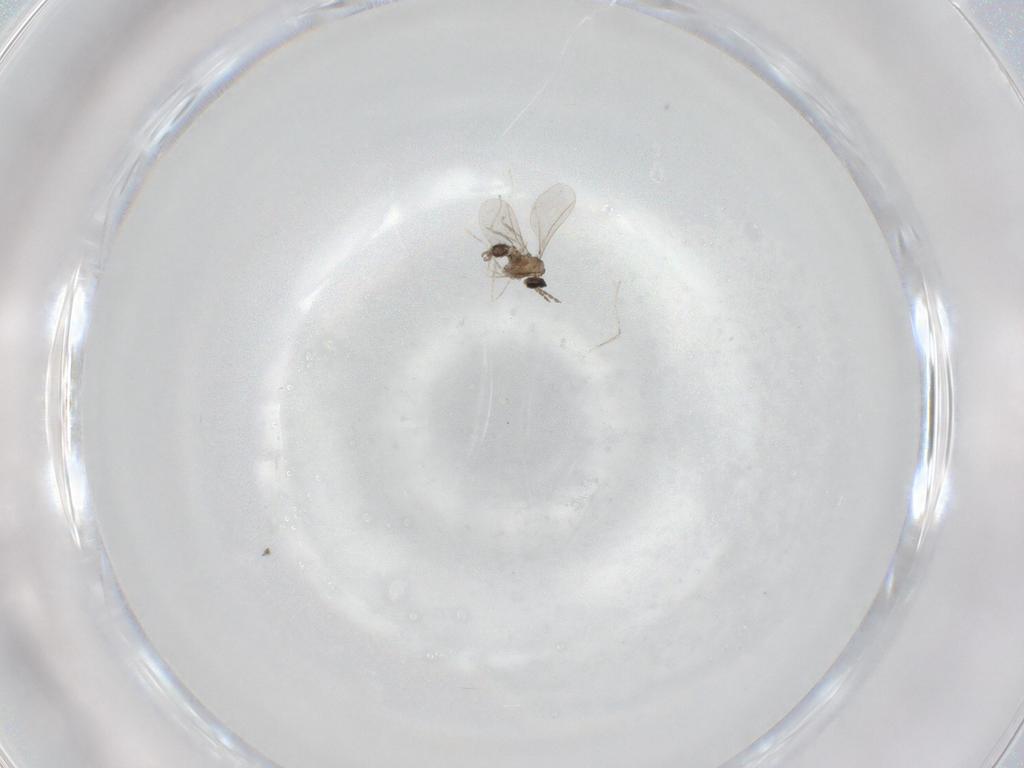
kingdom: Animalia
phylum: Arthropoda
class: Insecta
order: Diptera
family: Cecidomyiidae
